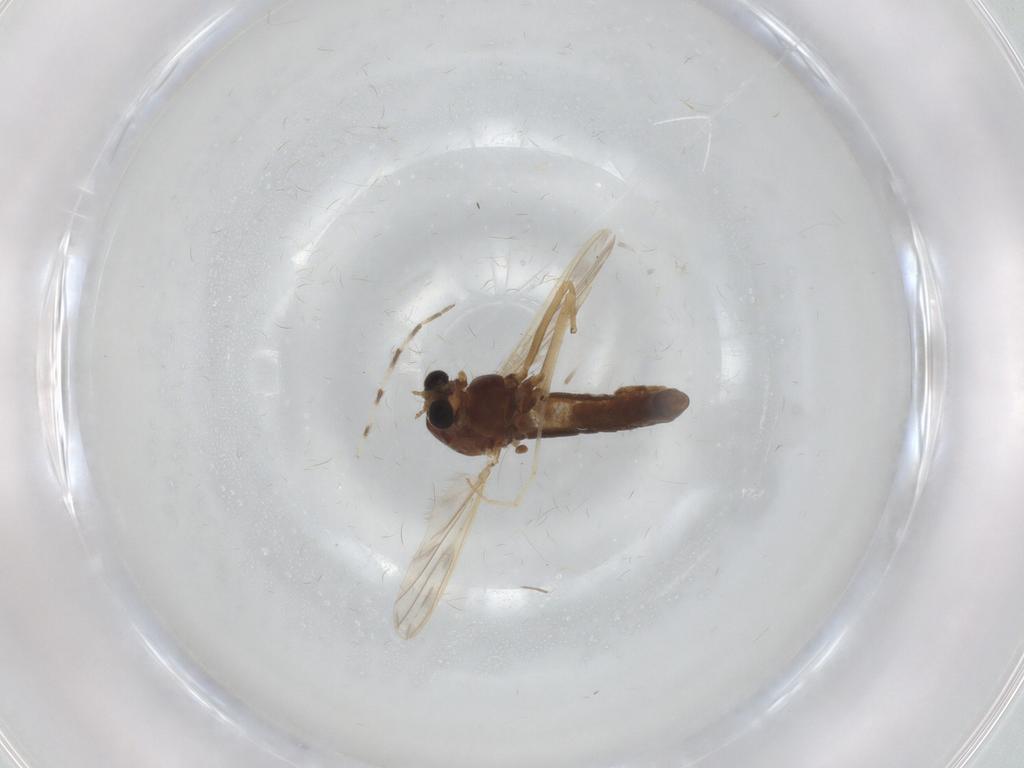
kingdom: Animalia
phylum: Arthropoda
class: Insecta
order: Diptera
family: Chironomidae
